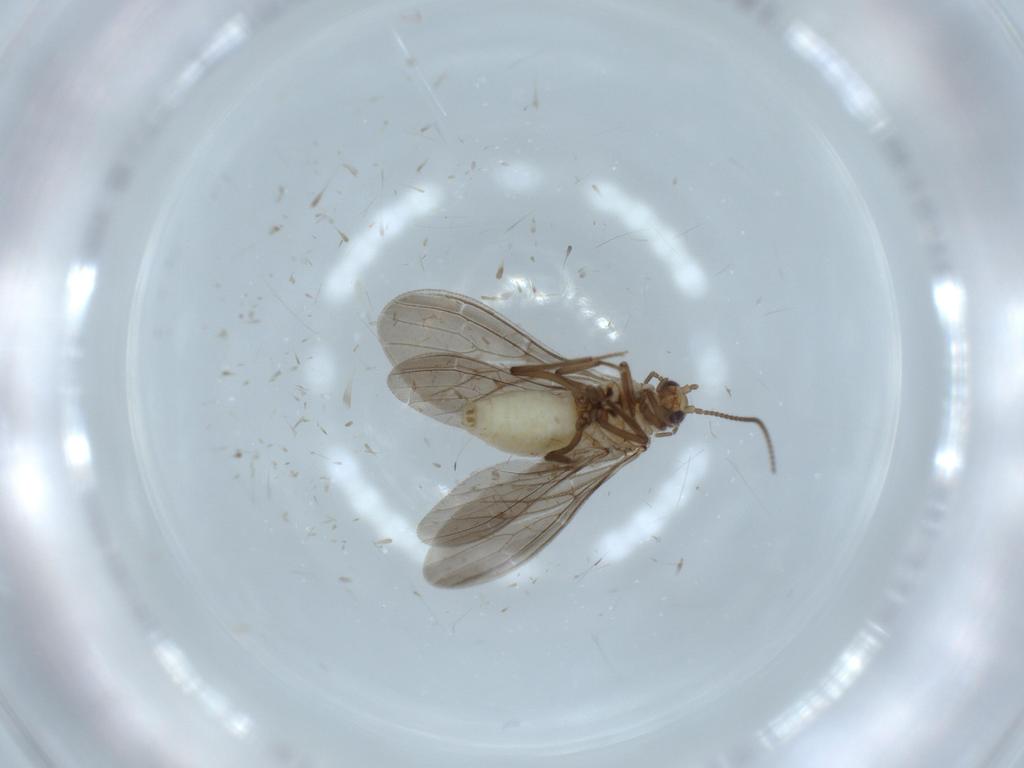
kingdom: Animalia
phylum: Arthropoda
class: Insecta
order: Neuroptera
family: Coniopterygidae
